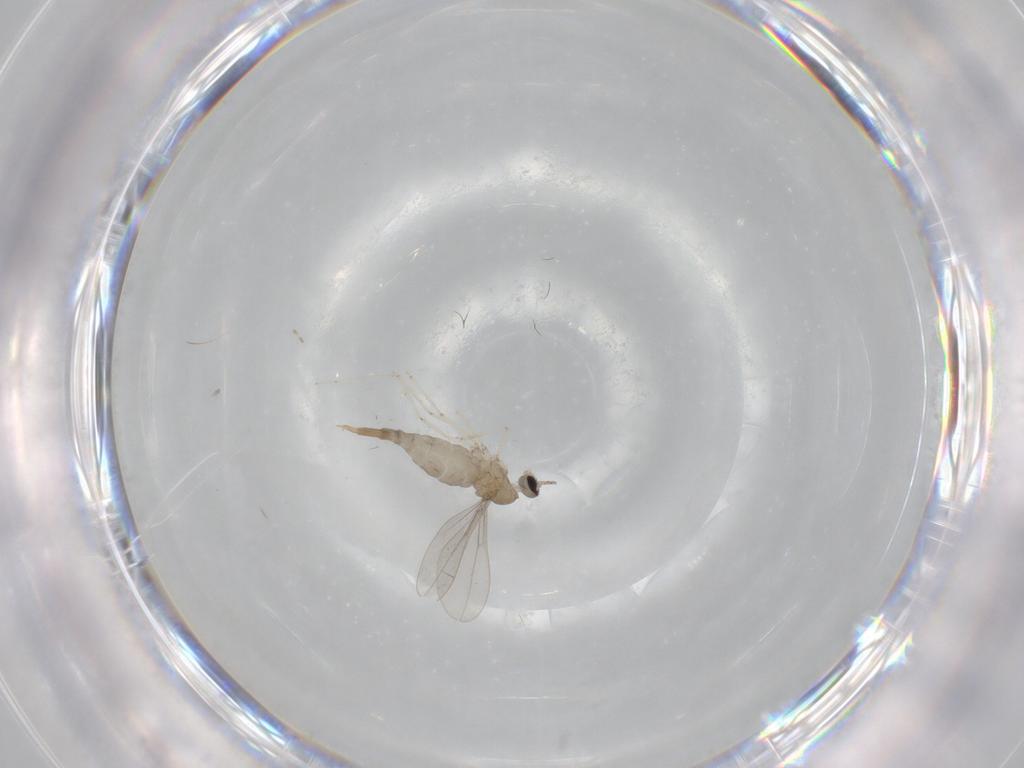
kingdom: Animalia
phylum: Arthropoda
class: Insecta
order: Diptera
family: Cecidomyiidae
